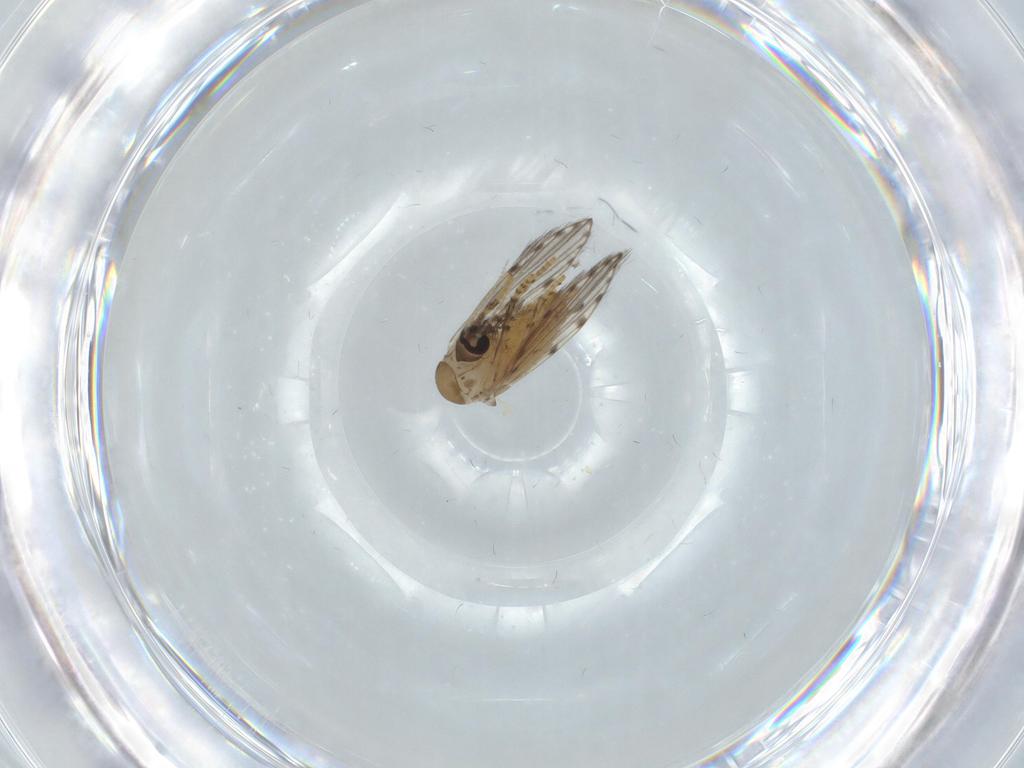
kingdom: Animalia
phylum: Arthropoda
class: Insecta
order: Diptera
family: Psychodidae
